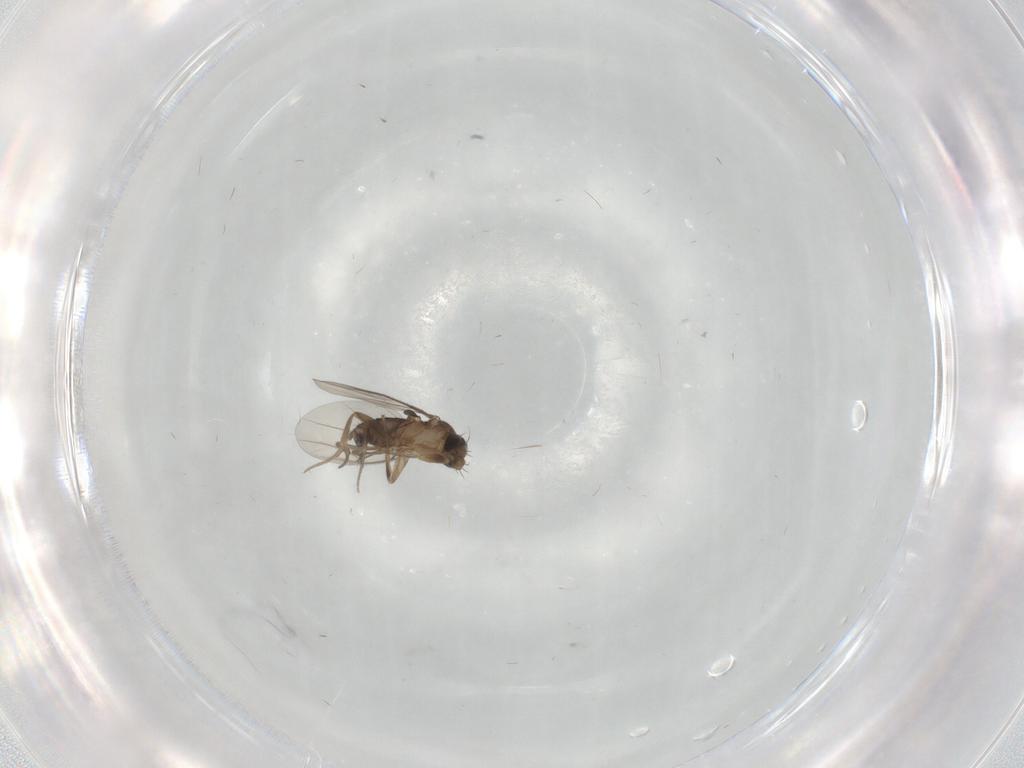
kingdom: Animalia
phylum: Arthropoda
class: Insecta
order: Diptera
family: Phoridae
